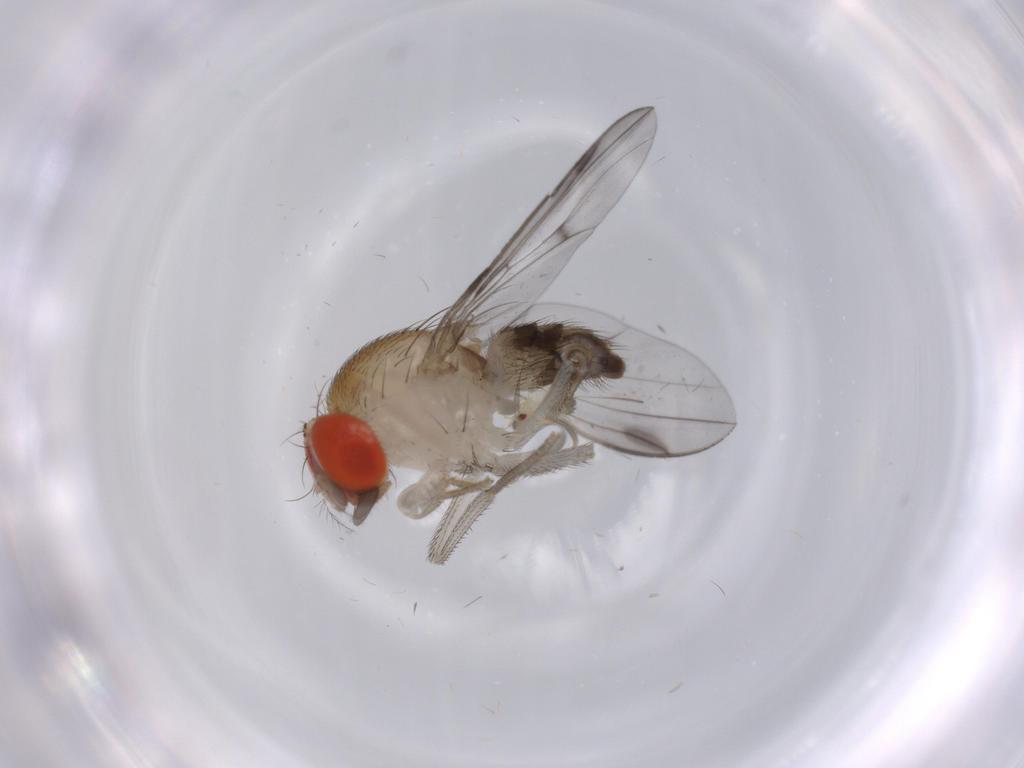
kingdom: Animalia
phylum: Arthropoda
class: Insecta
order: Diptera
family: Drosophilidae
